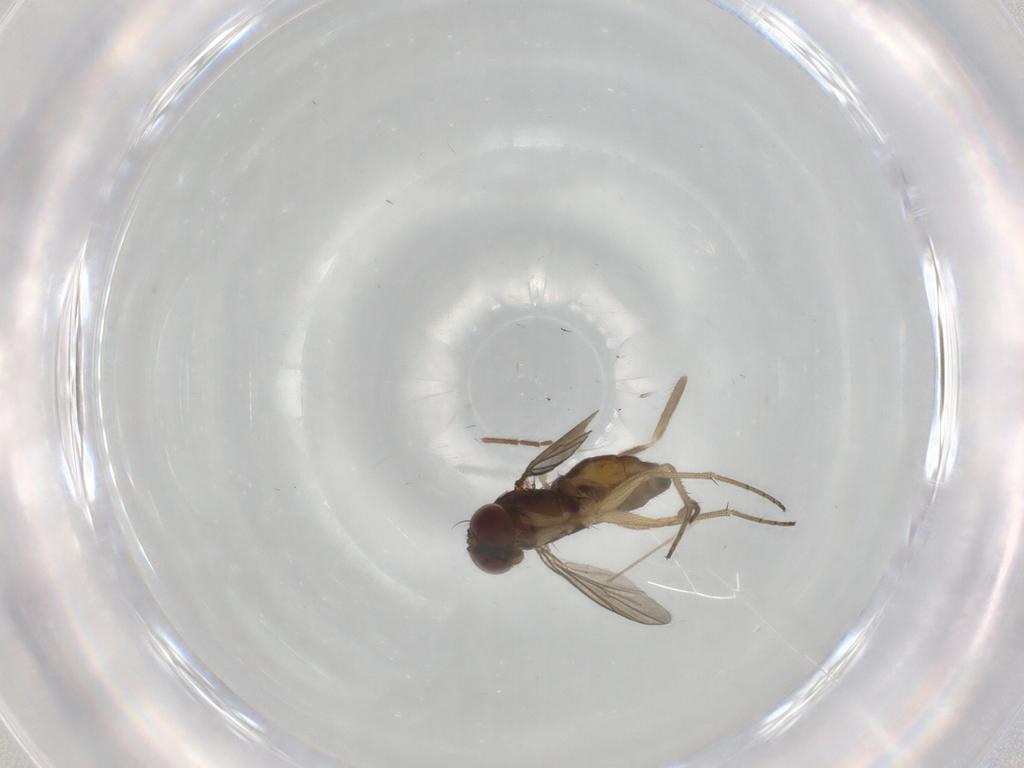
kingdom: Animalia
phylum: Arthropoda
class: Insecta
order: Diptera
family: Dolichopodidae
